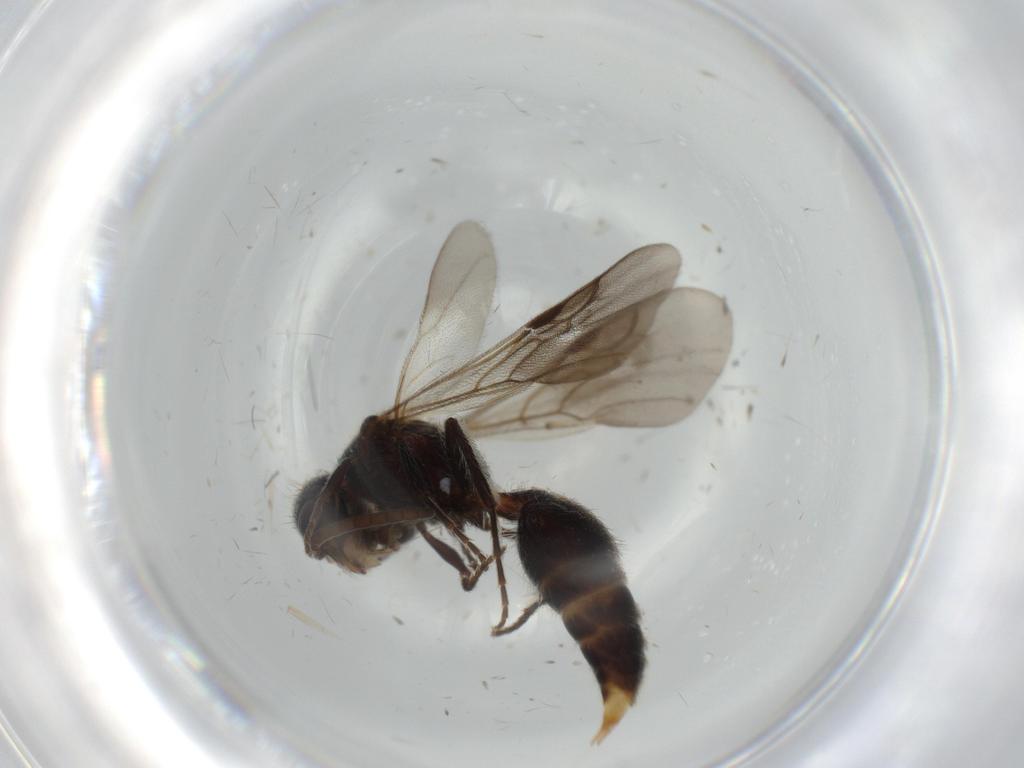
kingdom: Animalia
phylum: Arthropoda
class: Insecta
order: Hymenoptera
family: Mutillidae
